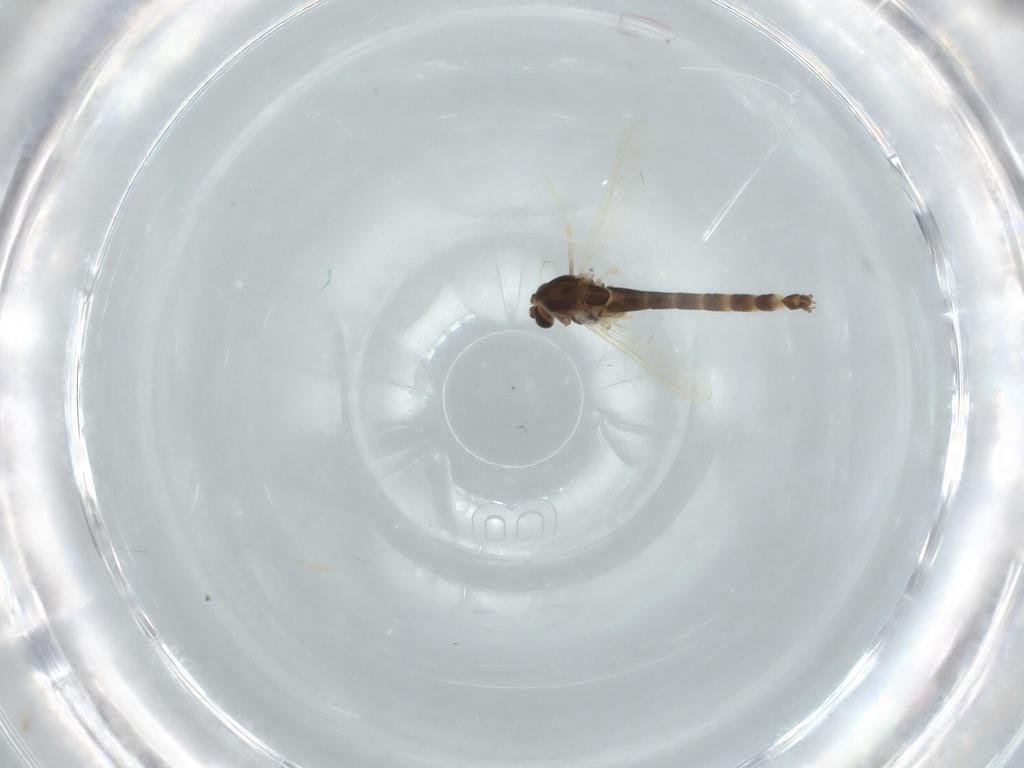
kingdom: Animalia
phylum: Arthropoda
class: Insecta
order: Diptera
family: Chironomidae
